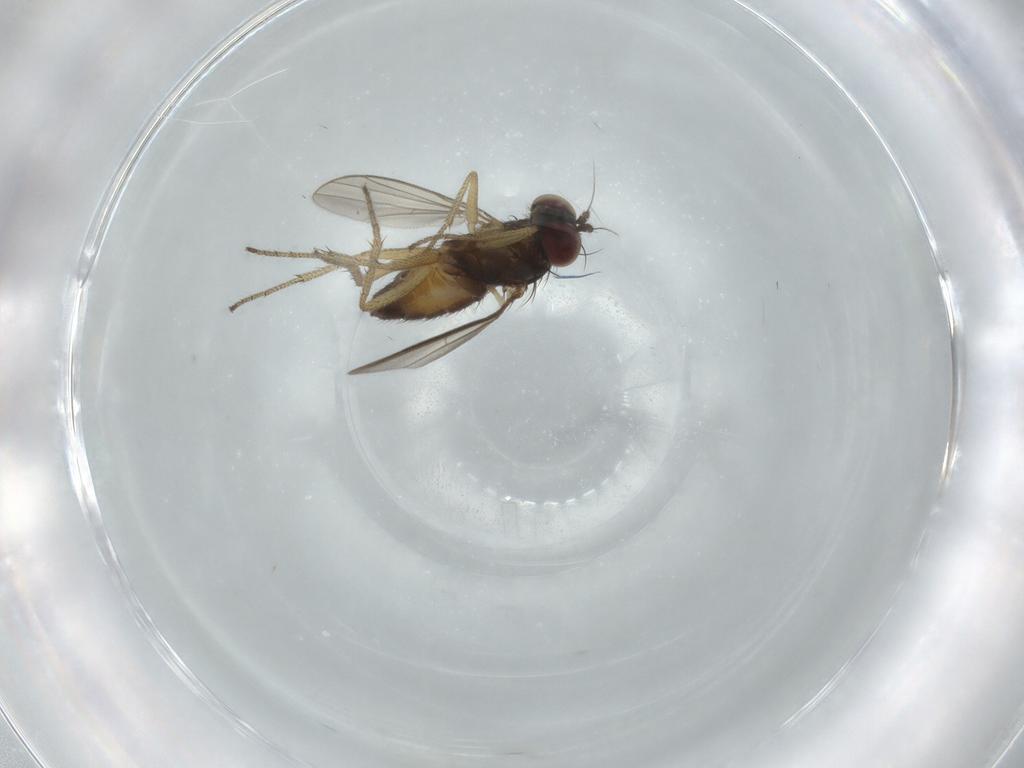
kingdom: Animalia
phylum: Arthropoda
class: Insecta
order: Diptera
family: Dolichopodidae
